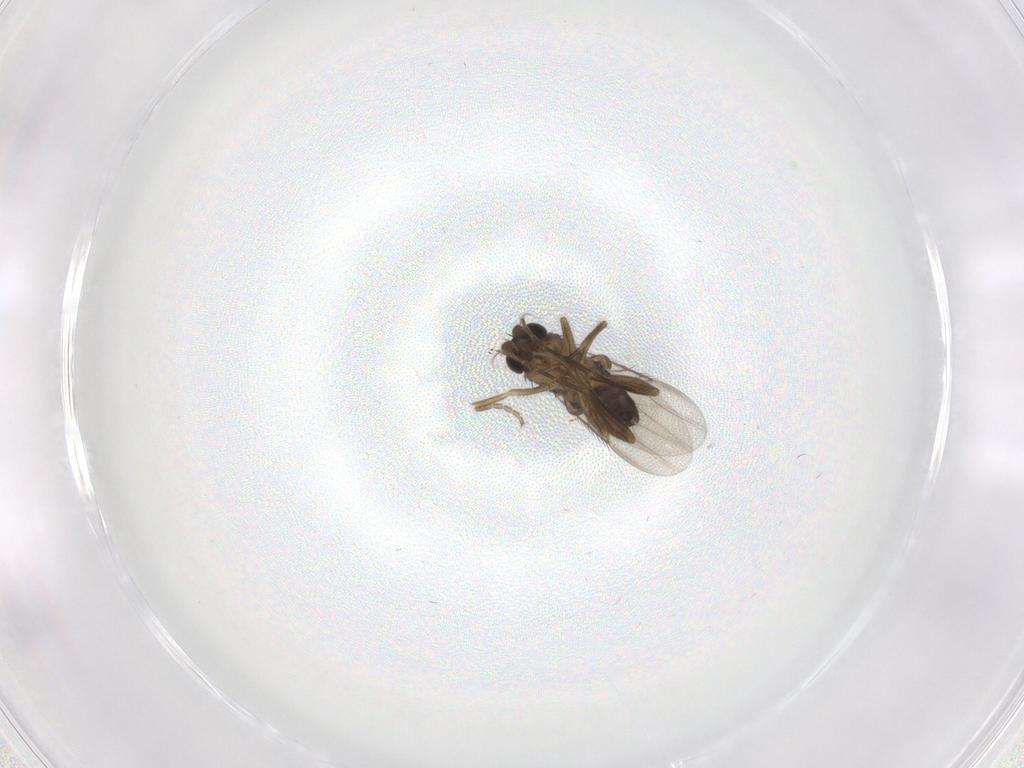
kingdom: Animalia
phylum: Arthropoda
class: Insecta
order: Diptera
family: Phoridae
